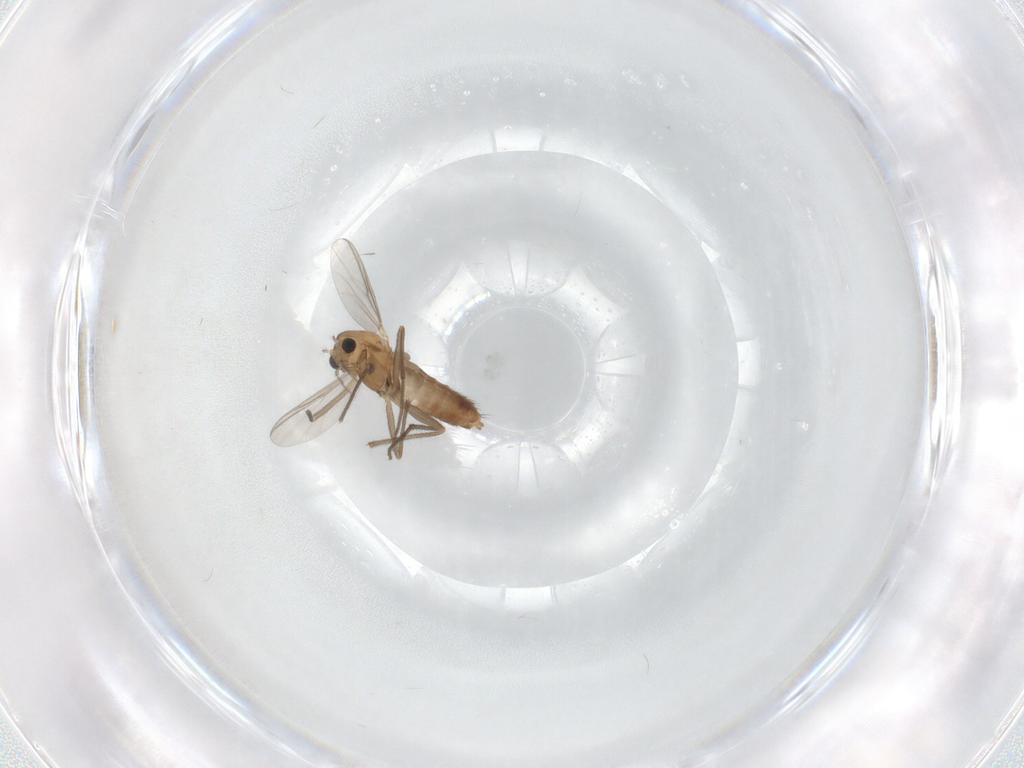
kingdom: Animalia
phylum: Arthropoda
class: Insecta
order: Diptera
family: Chironomidae
